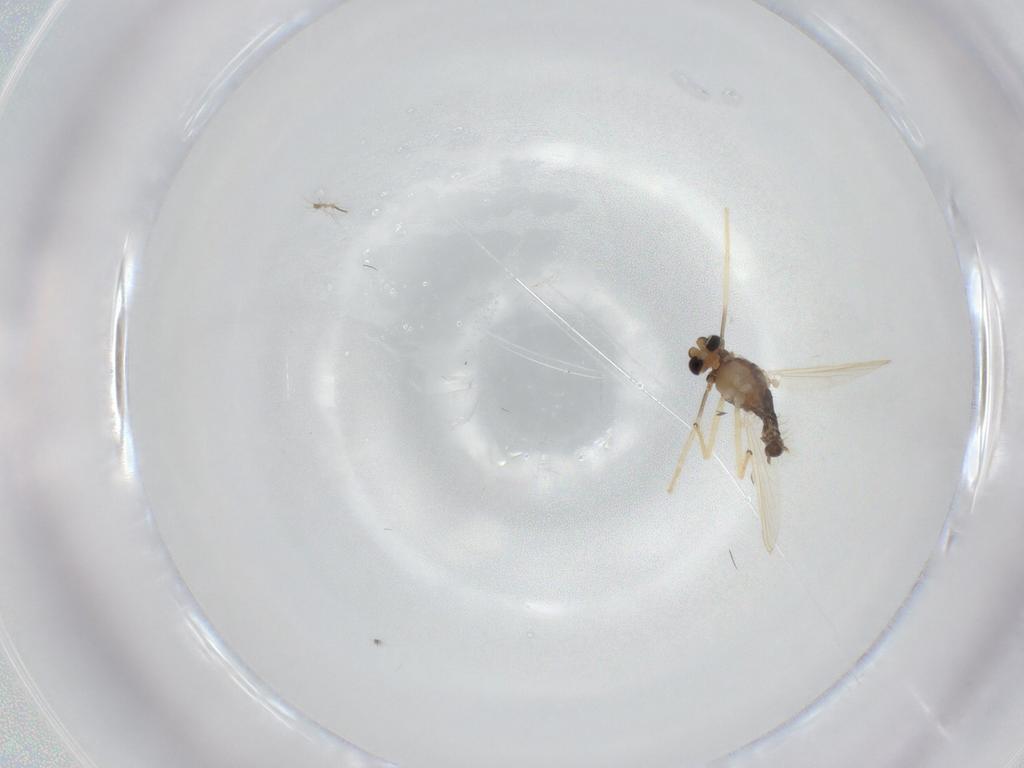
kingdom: Animalia
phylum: Arthropoda
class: Insecta
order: Diptera
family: Chironomidae
